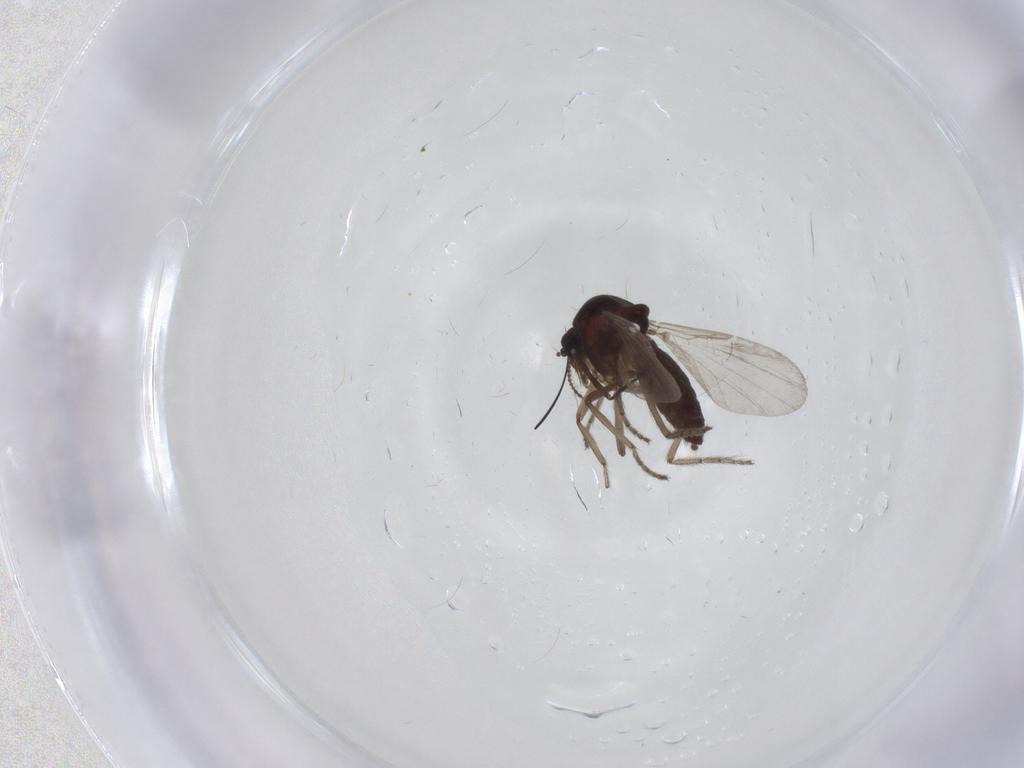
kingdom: Animalia
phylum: Arthropoda
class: Insecta
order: Diptera
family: Ceratopogonidae
